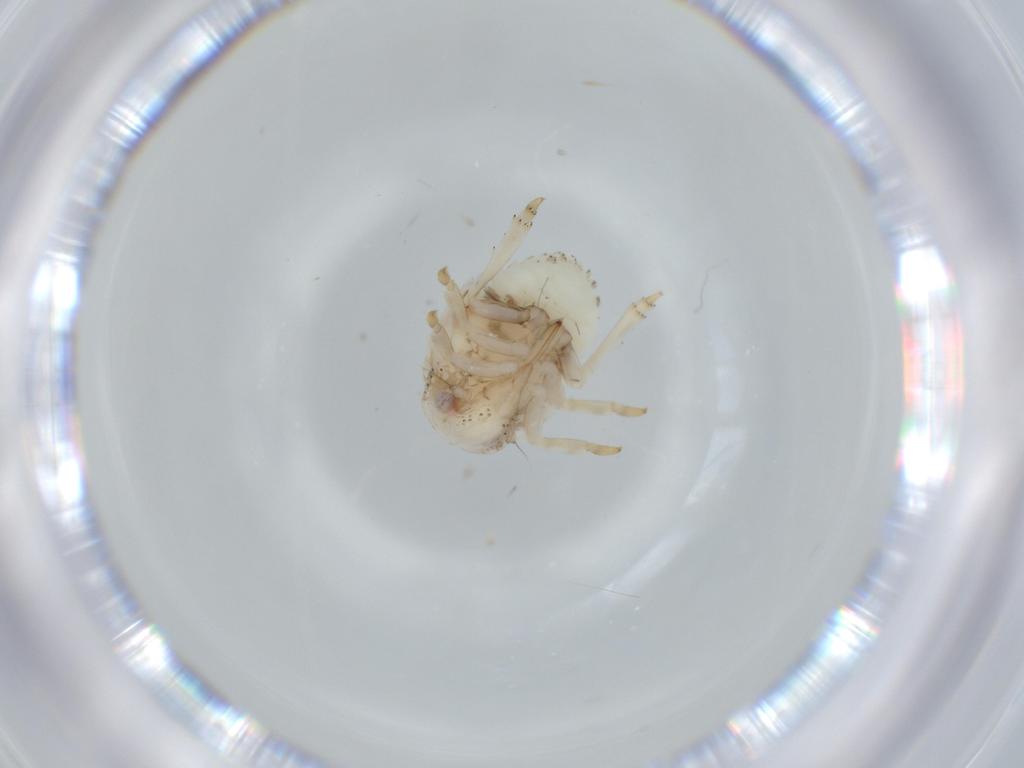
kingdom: Animalia
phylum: Arthropoda
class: Insecta
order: Hemiptera
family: Acanaloniidae
